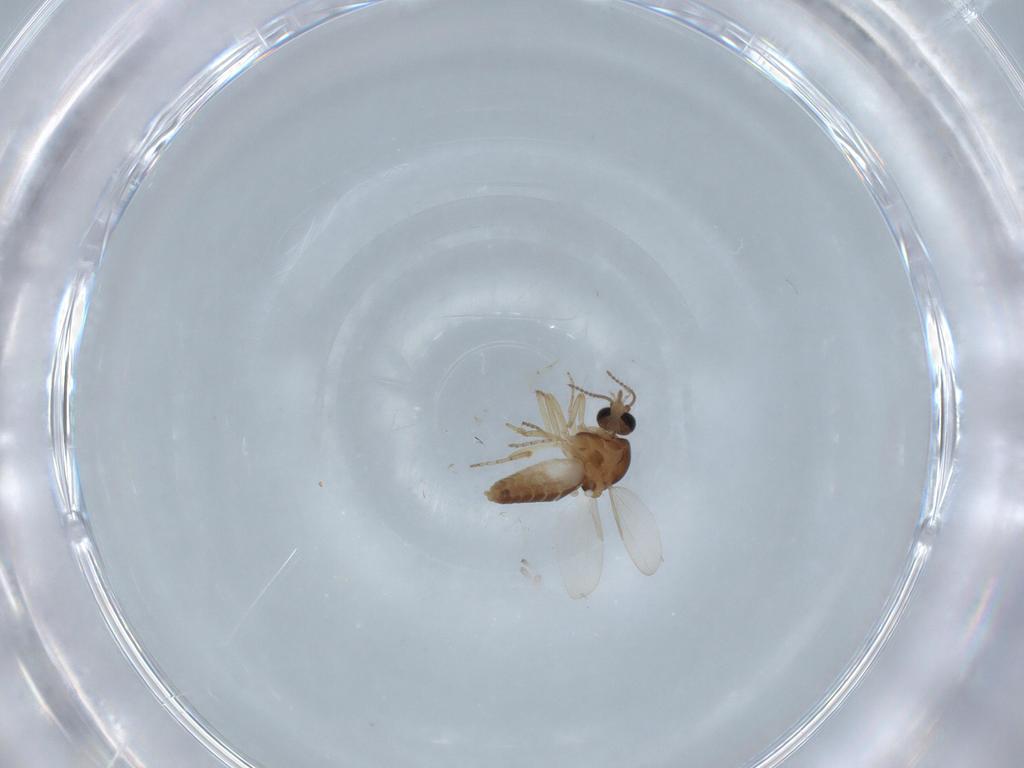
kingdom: Animalia
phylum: Arthropoda
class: Insecta
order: Diptera
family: Ceratopogonidae
